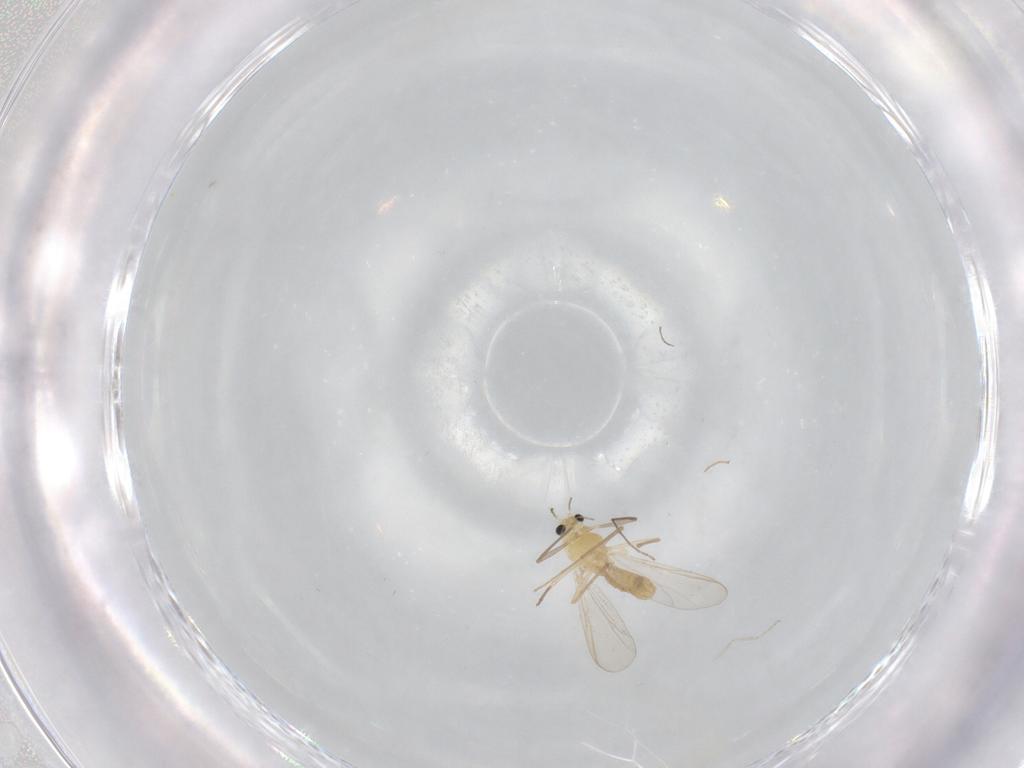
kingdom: Animalia
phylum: Arthropoda
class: Insecta
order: Diptera
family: Chironomidae
